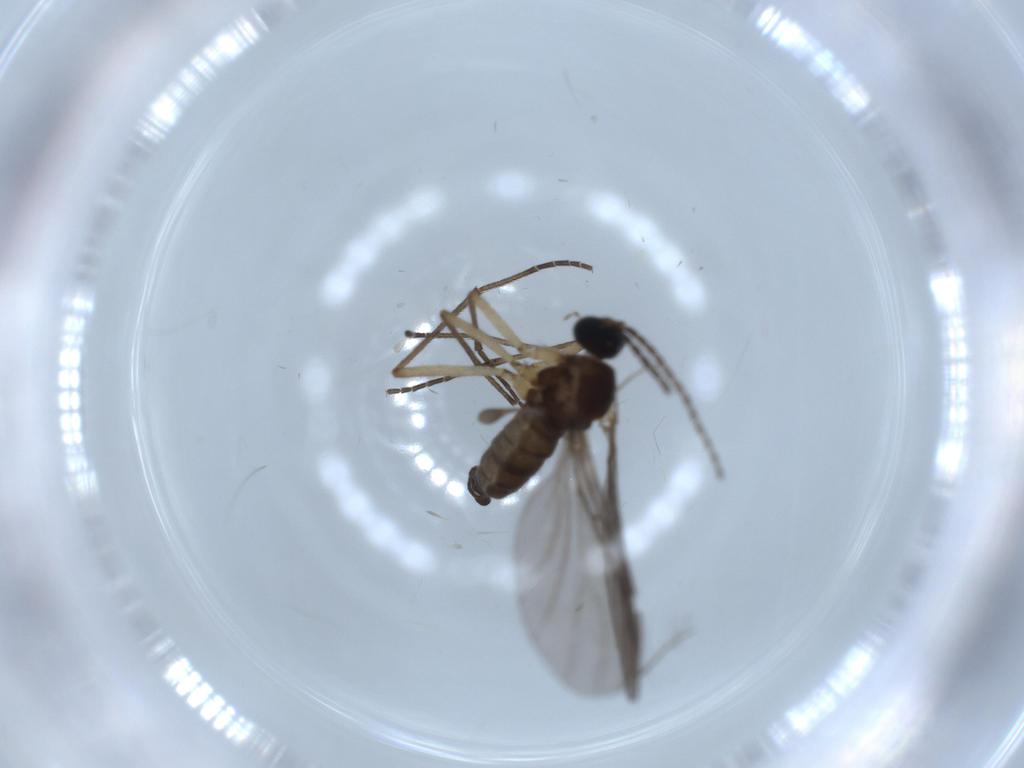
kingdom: Animalia
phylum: Arthropoda
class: Insecta
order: Diptera
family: Sciaridae
